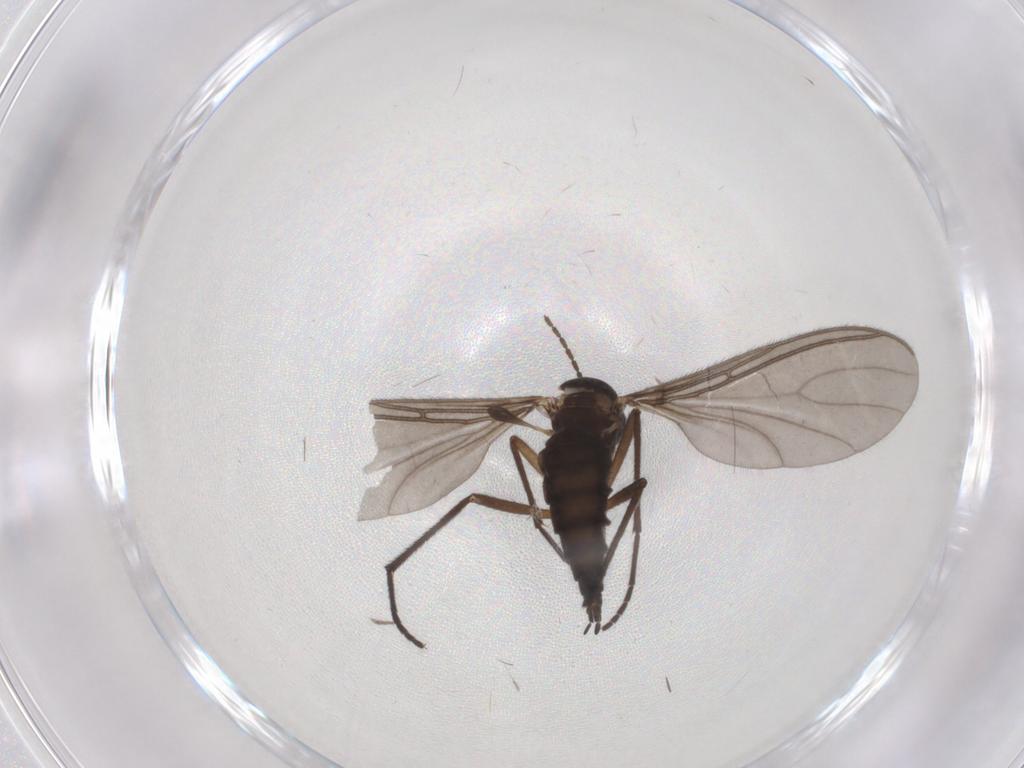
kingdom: Animalia
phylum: Arthropoda
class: Insecta
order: Diptera
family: Sciaridae
